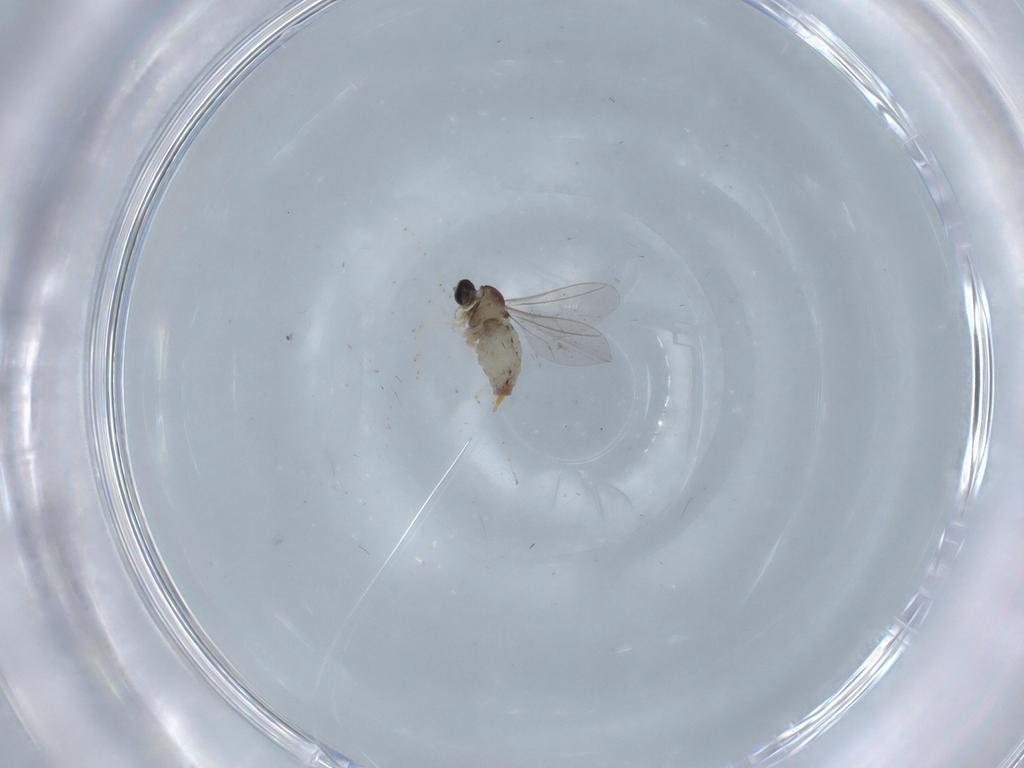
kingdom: Animalia
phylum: Arthropoda
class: Insecta
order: Diptera
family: Cecidomyiidae
